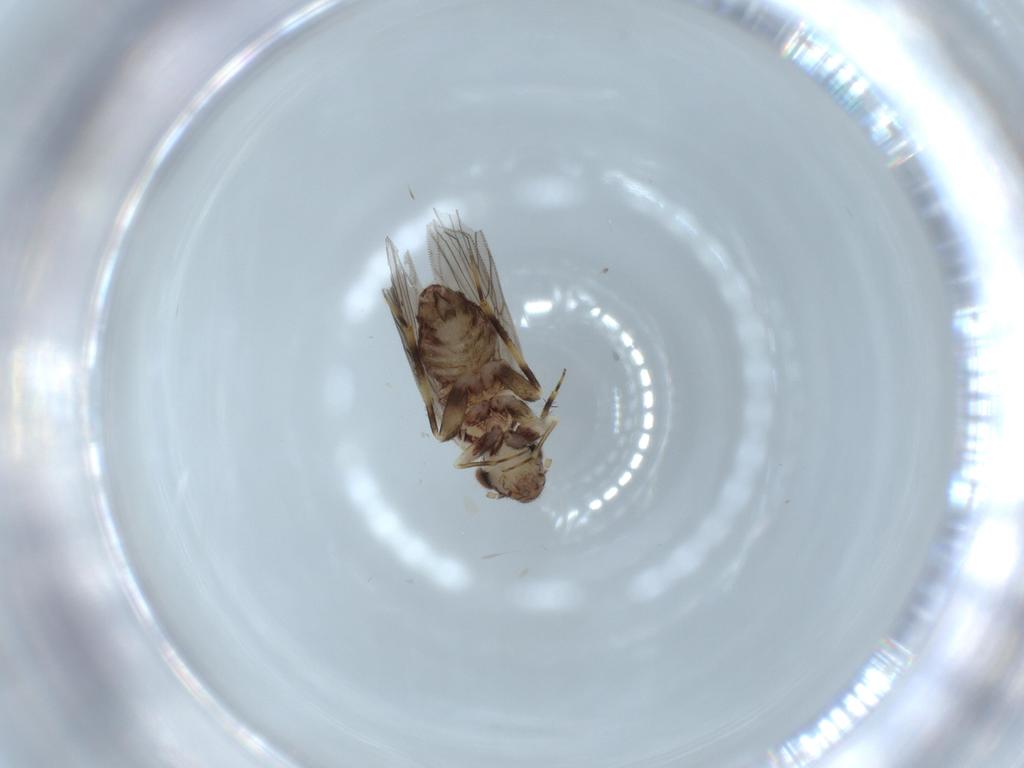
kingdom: Animalia
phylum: Arthropoda
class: Insecta
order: Psocodea
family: Lepidopsocidae
